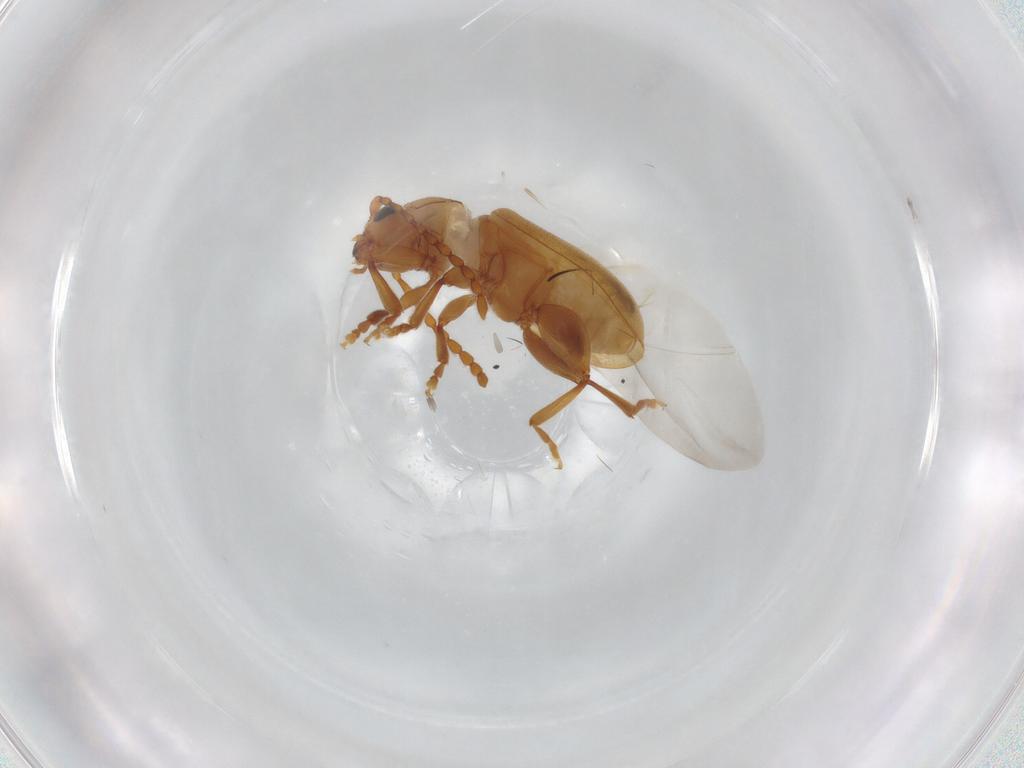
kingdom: Animalia
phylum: Arthropoda
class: Insecta
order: Coleoptera
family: Chrysomelidae
